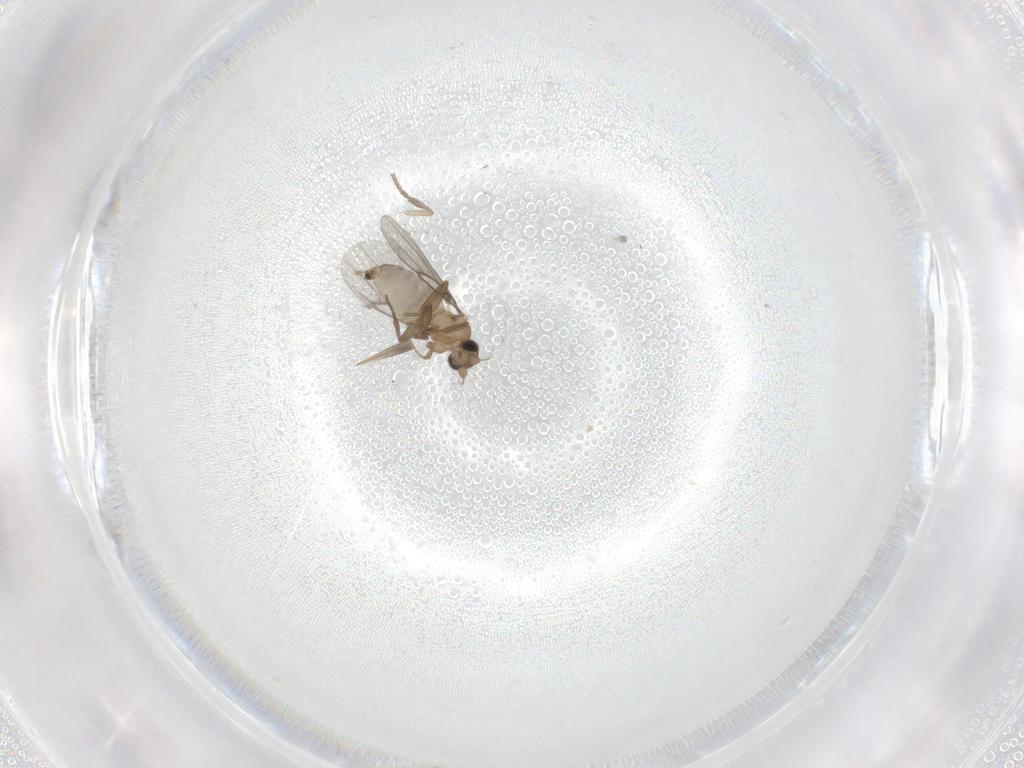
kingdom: Animalia
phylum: Arthropoda
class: Insecta
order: Diptera
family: Phoridae
